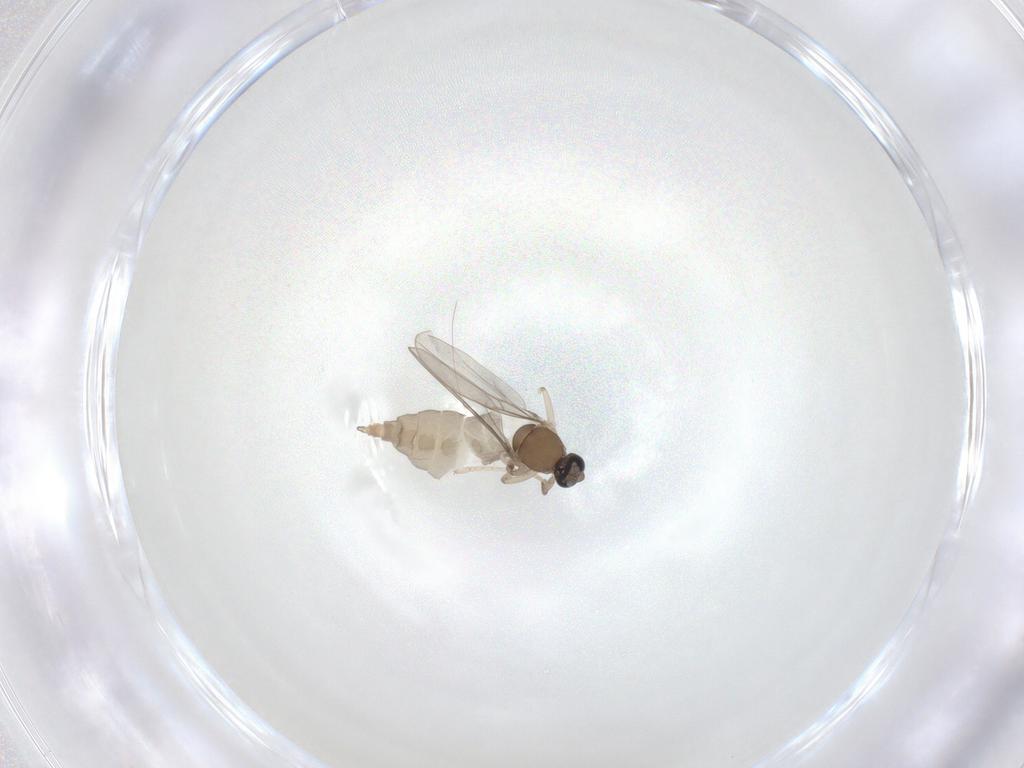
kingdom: Animalia
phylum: Arthropoda
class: Insecta
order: Diptera
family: Cecidomyiidae
